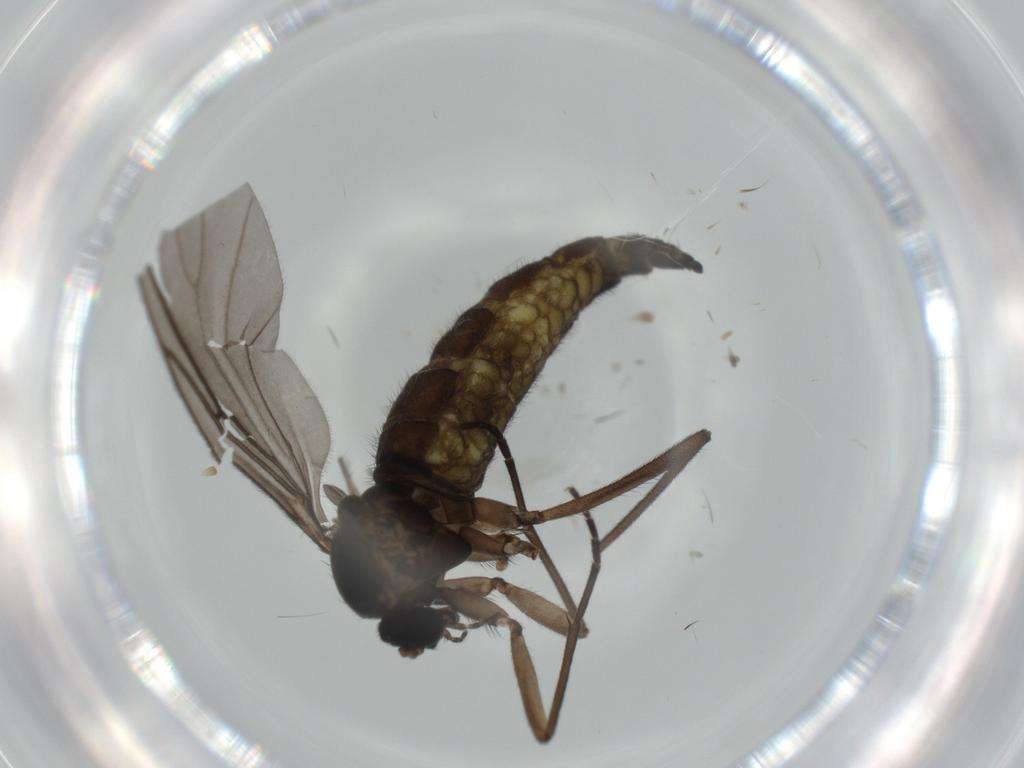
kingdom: Animalia
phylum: Arthropoda
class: Insecta
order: Diptera
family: Sciaridae
